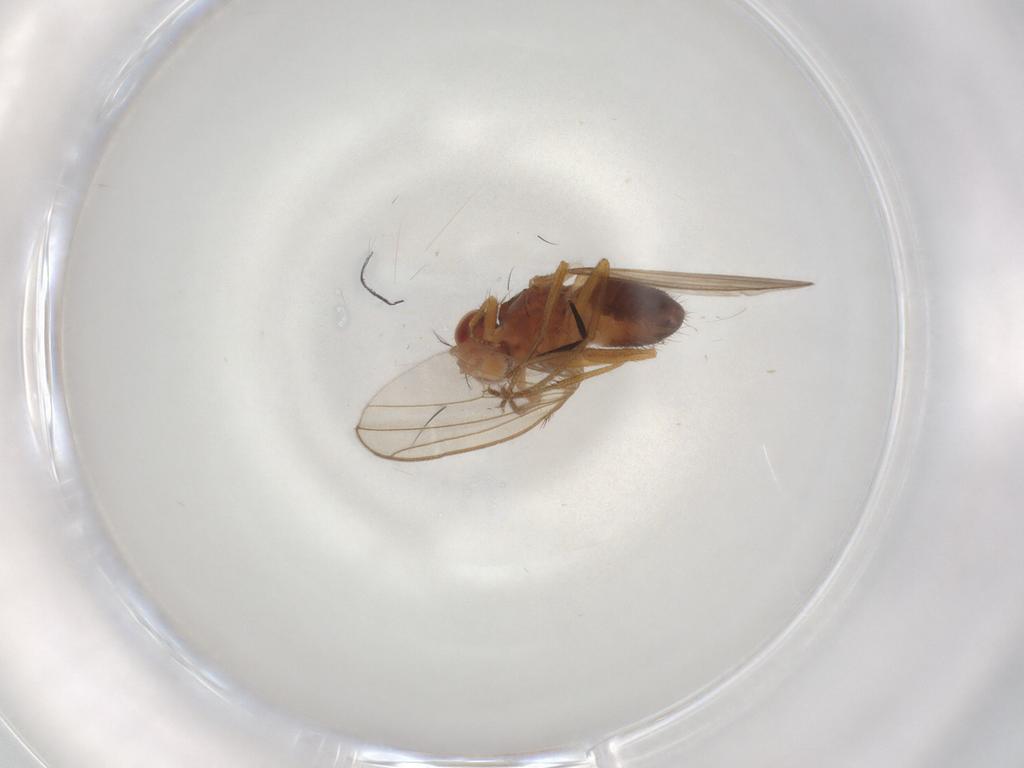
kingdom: Animalia
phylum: Arthropoda
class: Insecta
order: Diptera
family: Drosophilidae
